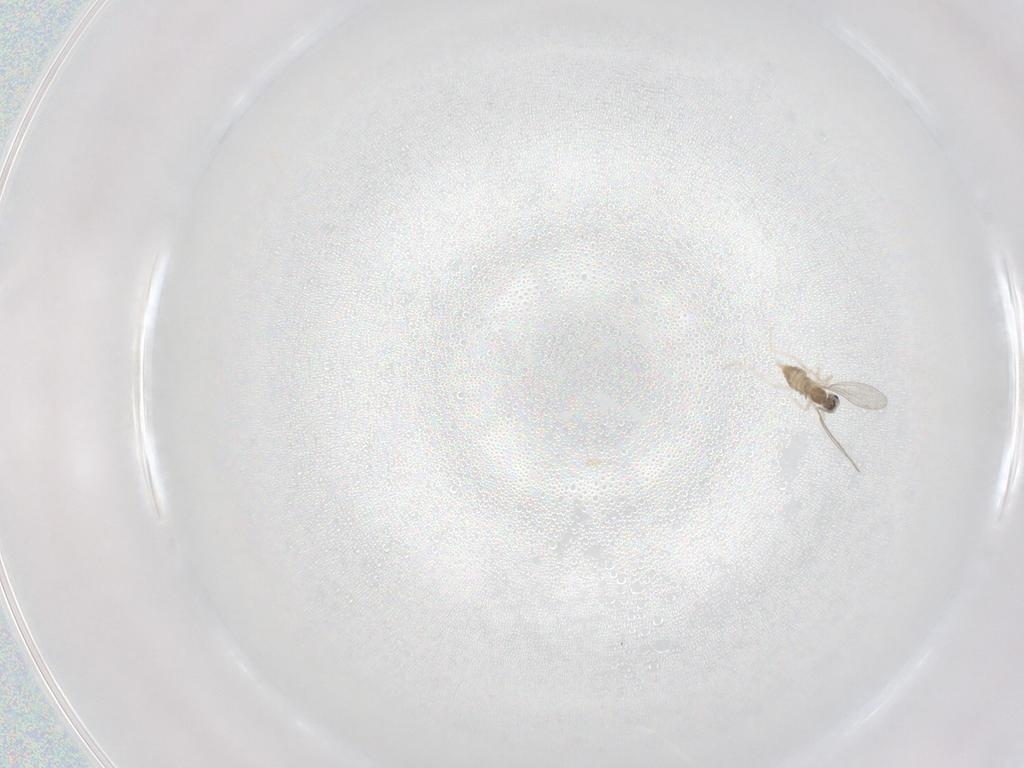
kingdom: Animalia
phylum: Arthropoda
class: Insecta
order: Diptera
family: Cecidomyiidae
